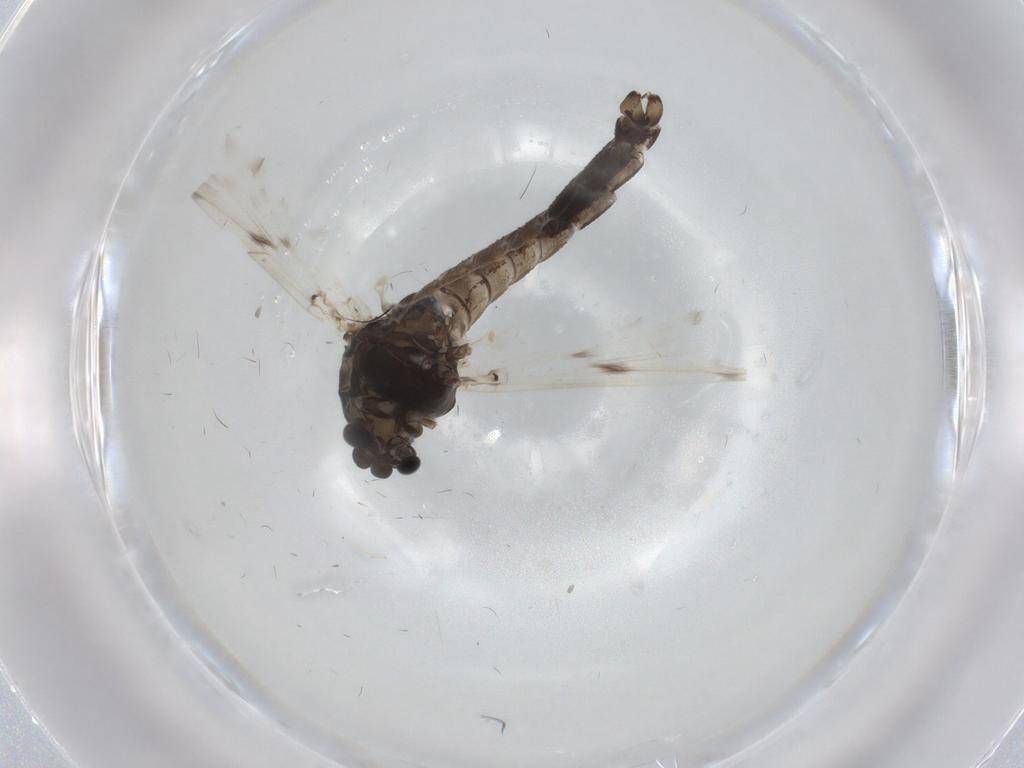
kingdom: Animalia
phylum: Arthropoda
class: Insecta
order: Diptera
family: Chironomidae
